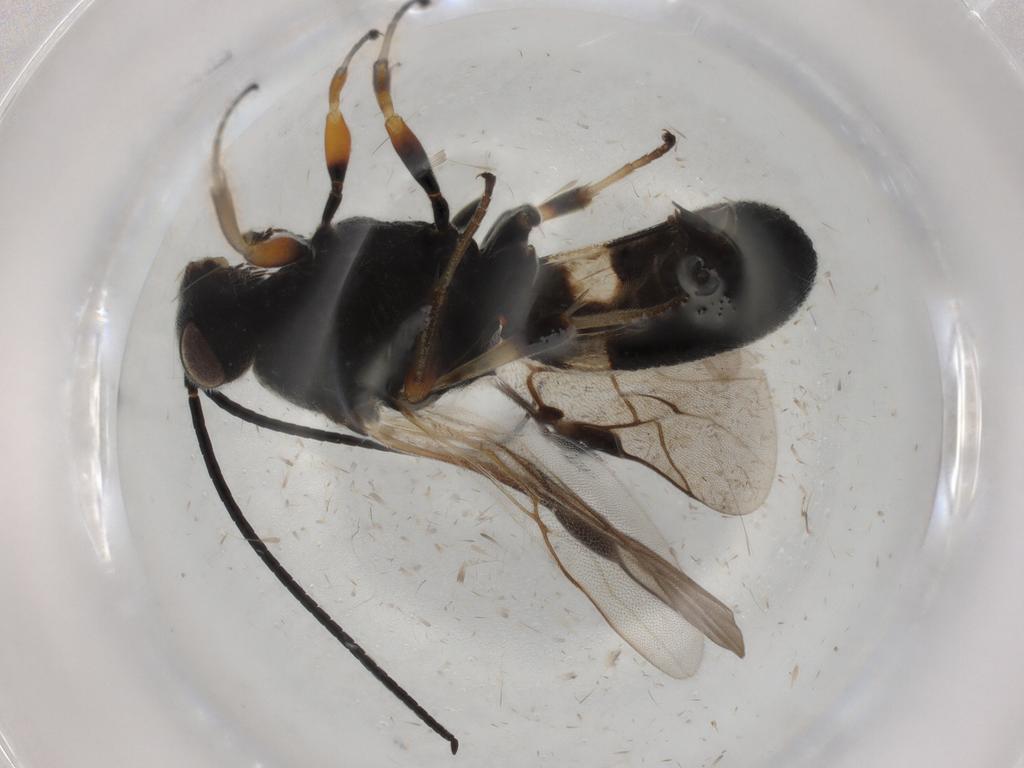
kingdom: Animalia
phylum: Arthropoda
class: Insecta
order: Hymenoptera
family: Braconidae
